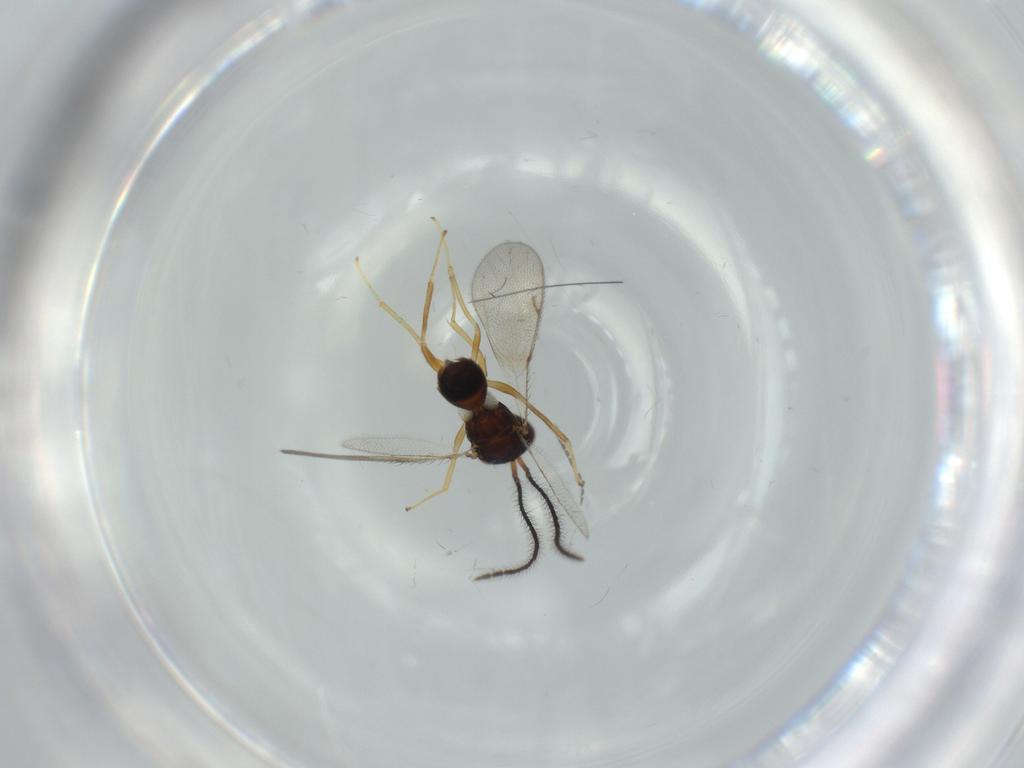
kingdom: Animalia
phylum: Arthropoda
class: Insecta
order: Hymenoptera
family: Diparidae
